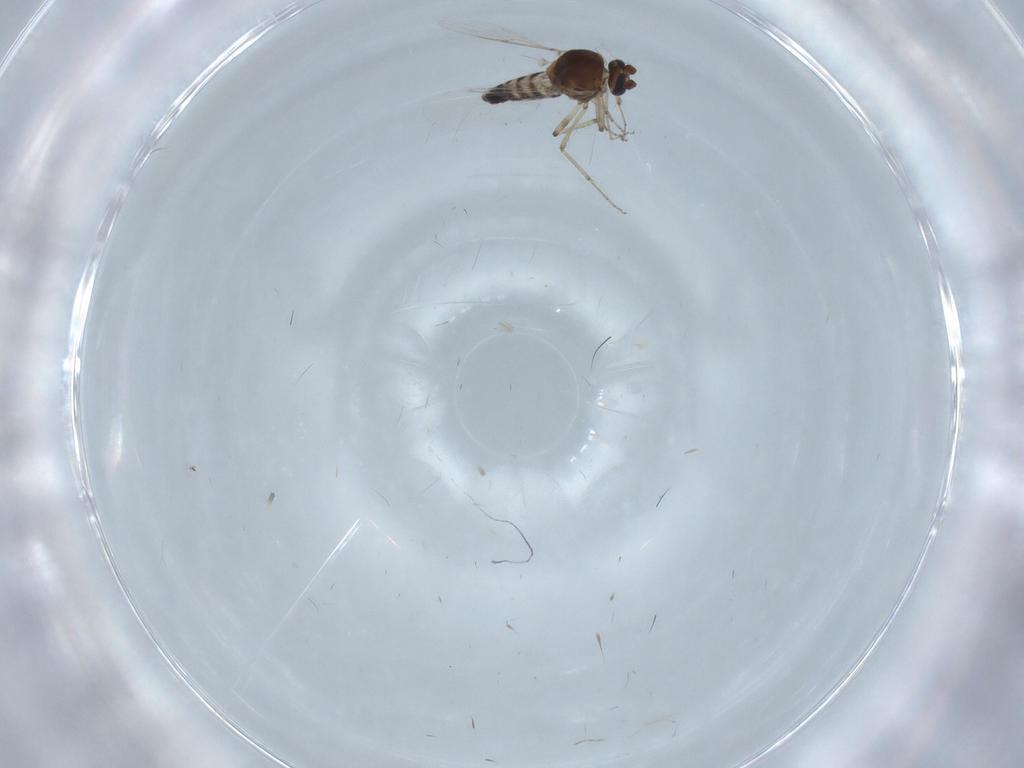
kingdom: Animalia
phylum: Arthropoda
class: Insecta
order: Diptera
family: Ceratopogonidae
